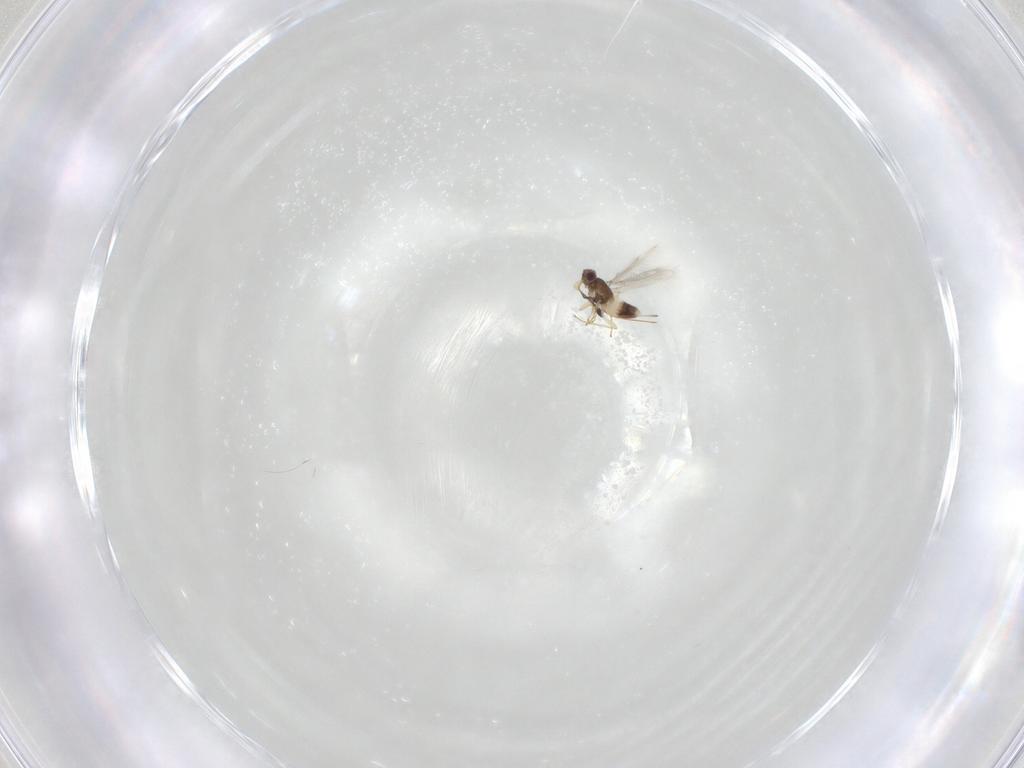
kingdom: Animalia
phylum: Arthropoda
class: Insecta
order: Hymenoptera
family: Mymaridae
